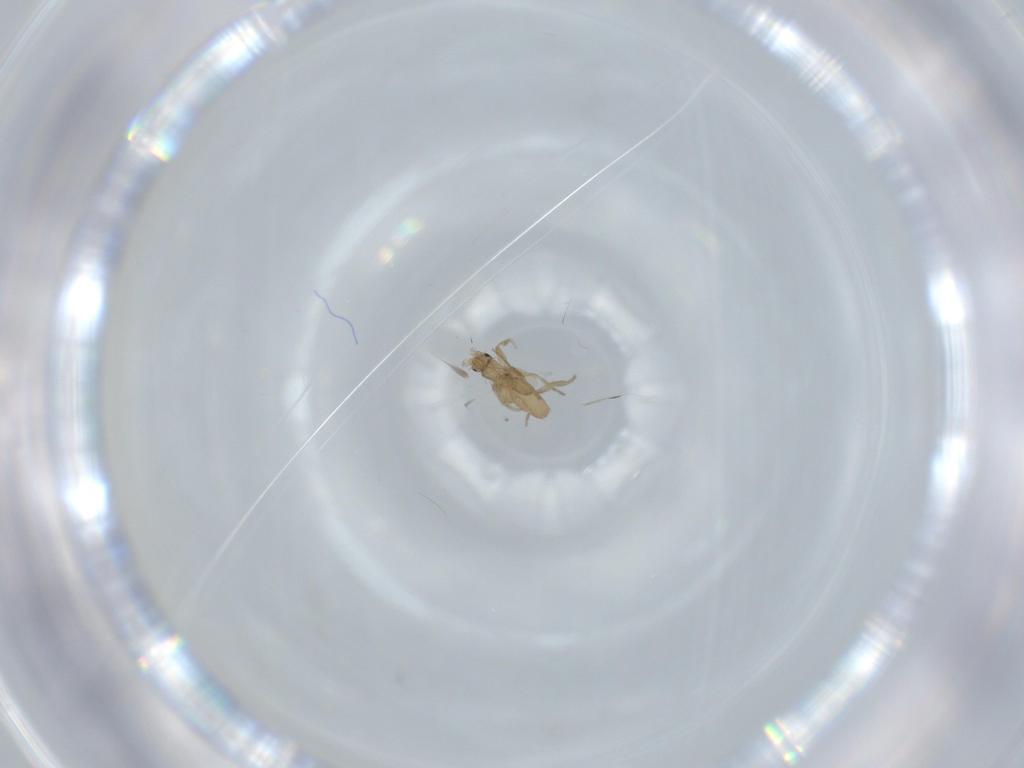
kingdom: Animalia
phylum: Arthropoda
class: Insecta
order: Diptera
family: Phoridae
